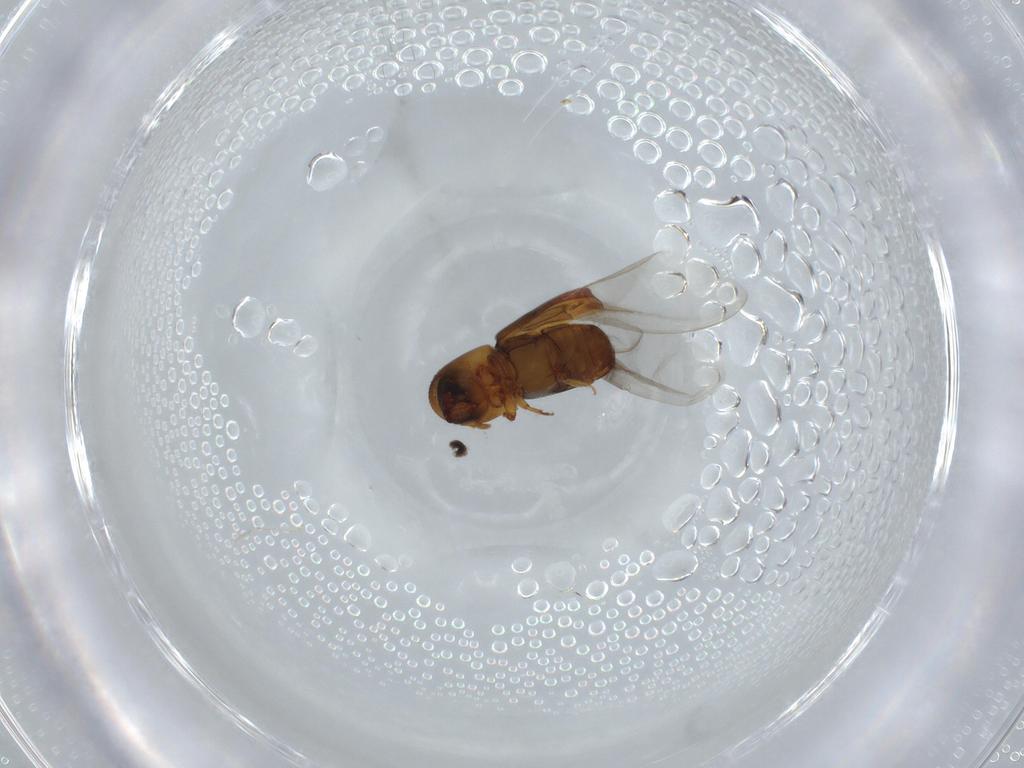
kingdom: Animalia
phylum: Arthropoda
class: Insecta
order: Coleoptera
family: Curculionidae
